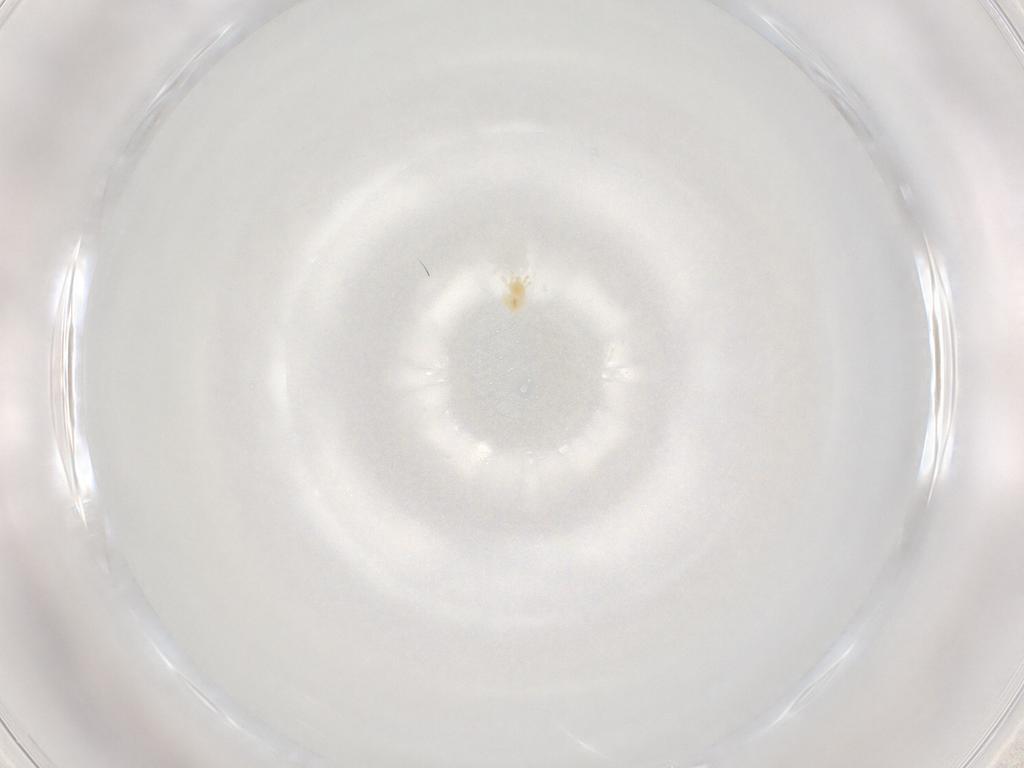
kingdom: Animalia
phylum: Arthropoda
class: Arachnida
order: Trombidiformes
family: Tetranychidae
